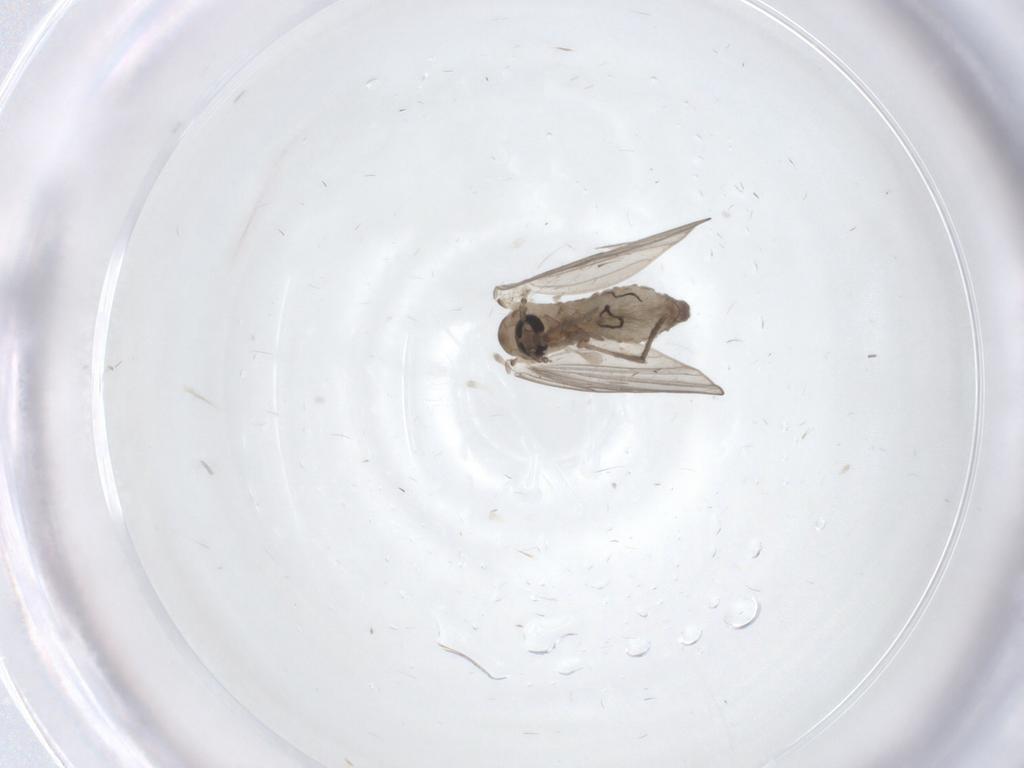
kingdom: Animalia
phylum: Arthropoda
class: Insecta
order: Diptera
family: Psychodidae
